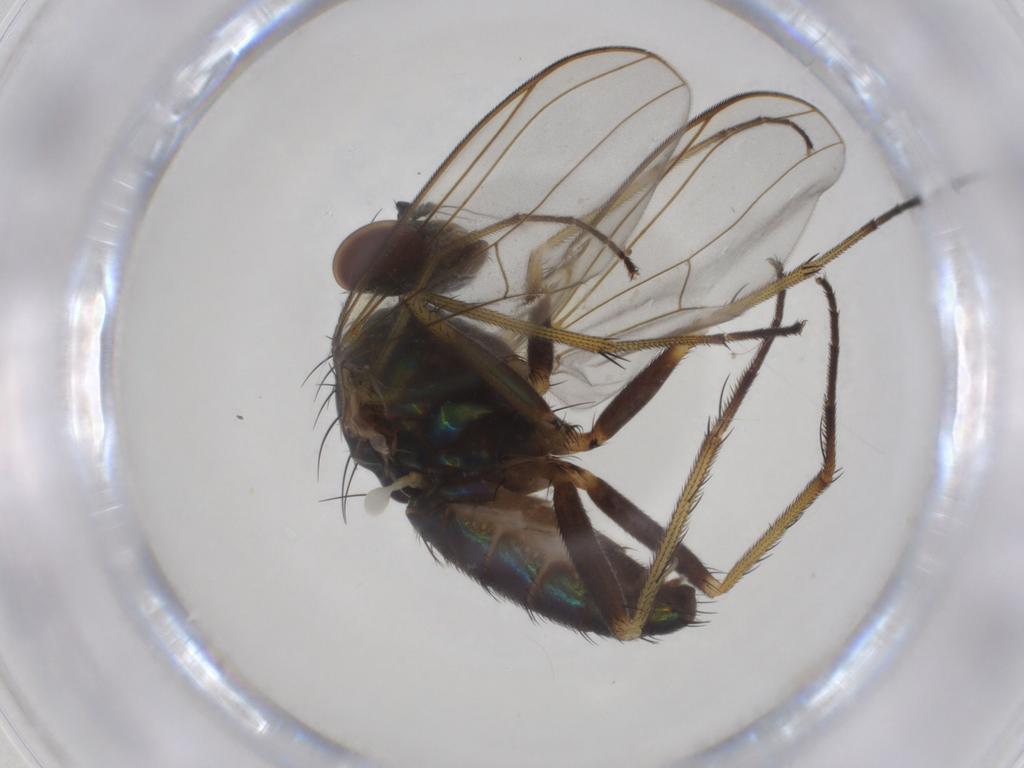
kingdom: Animalia
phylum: Arthropoda
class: Insecta
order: Diptera
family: Dolichopodidae
